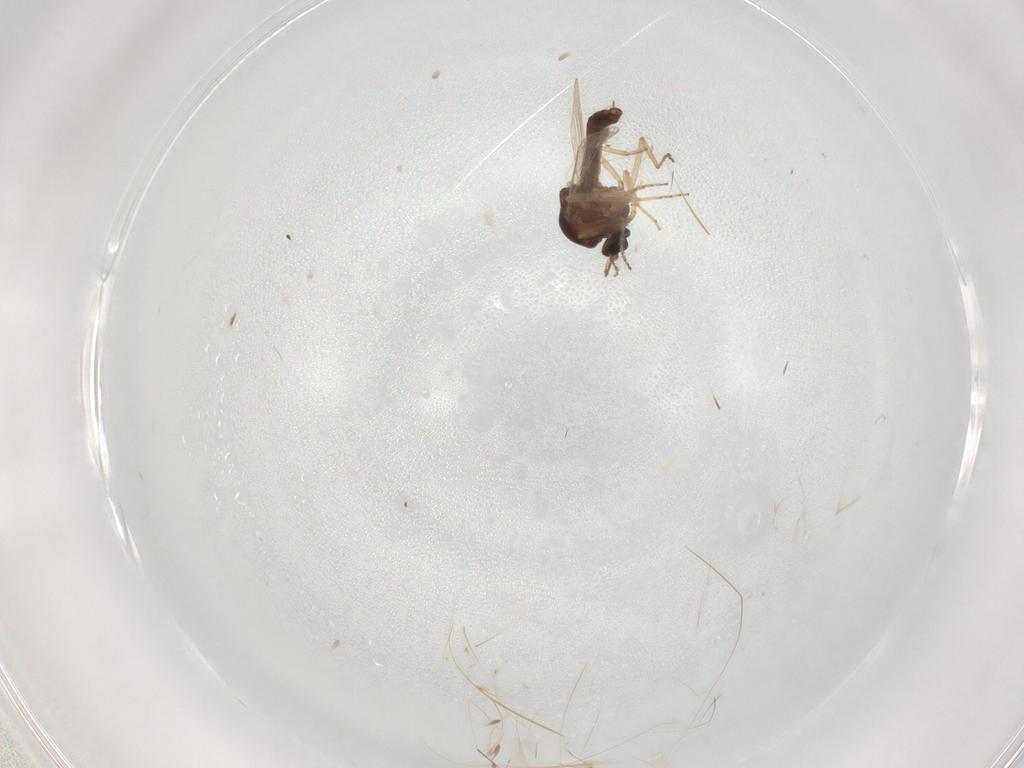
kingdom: Animalia
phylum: Arthropoda
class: Insecta
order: Diptera
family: Ceratopogonidae
